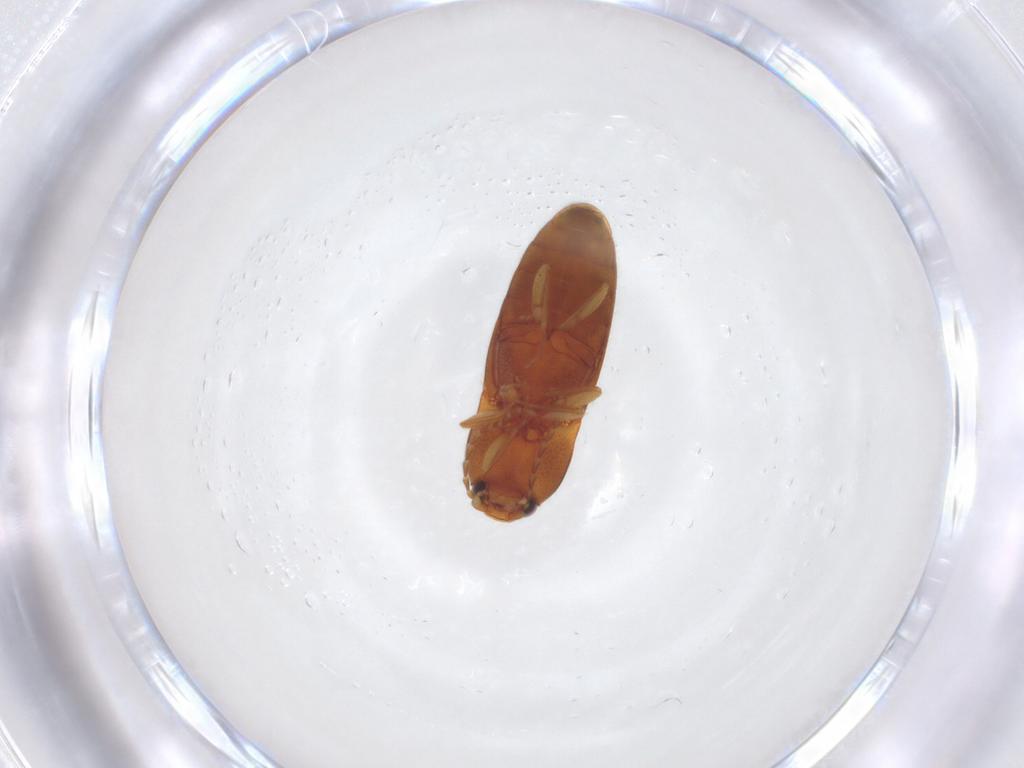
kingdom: Animalia
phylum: Arthropoda
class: Insecta
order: Coleoptera
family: Elateridae
